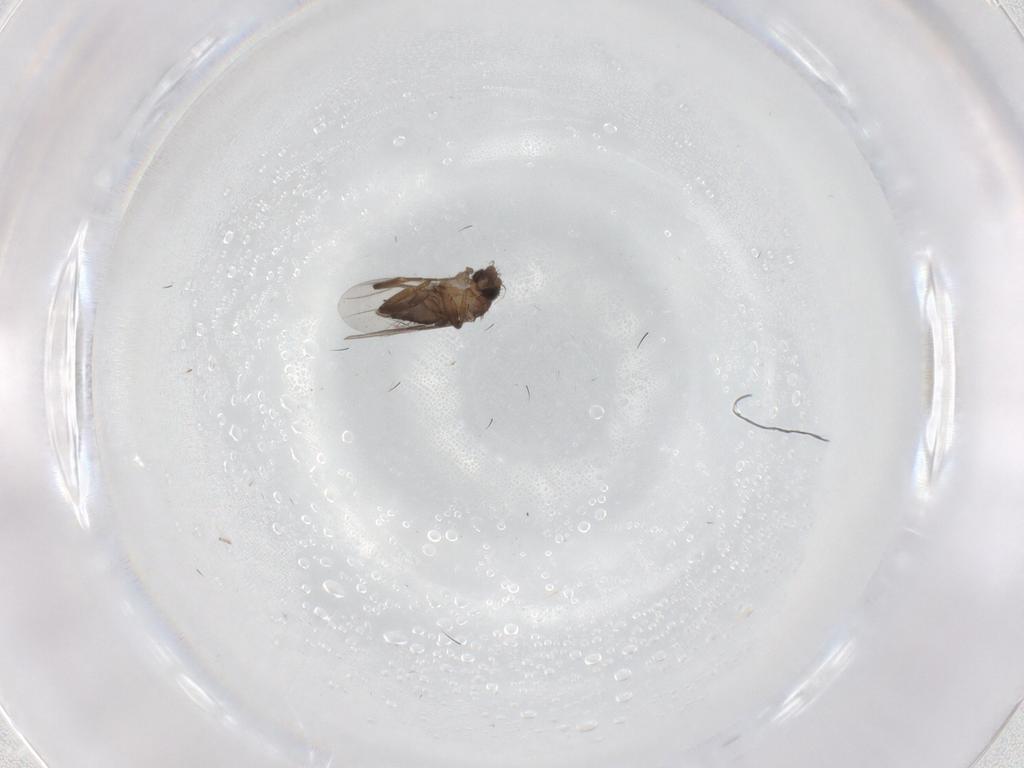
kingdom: Animalia
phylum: Arthropoda
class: Insecta
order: Diptera
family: Phoridae
